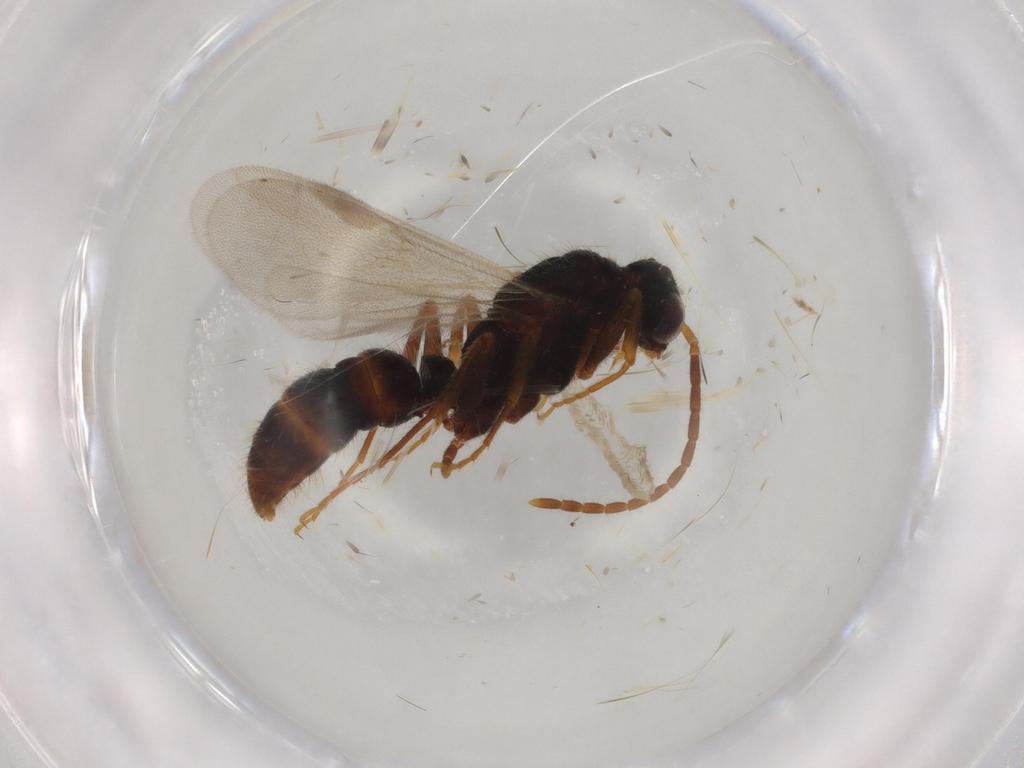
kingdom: Animalia
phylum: Arthropoda
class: Insecta
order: Hymenoptera
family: Formicidae
